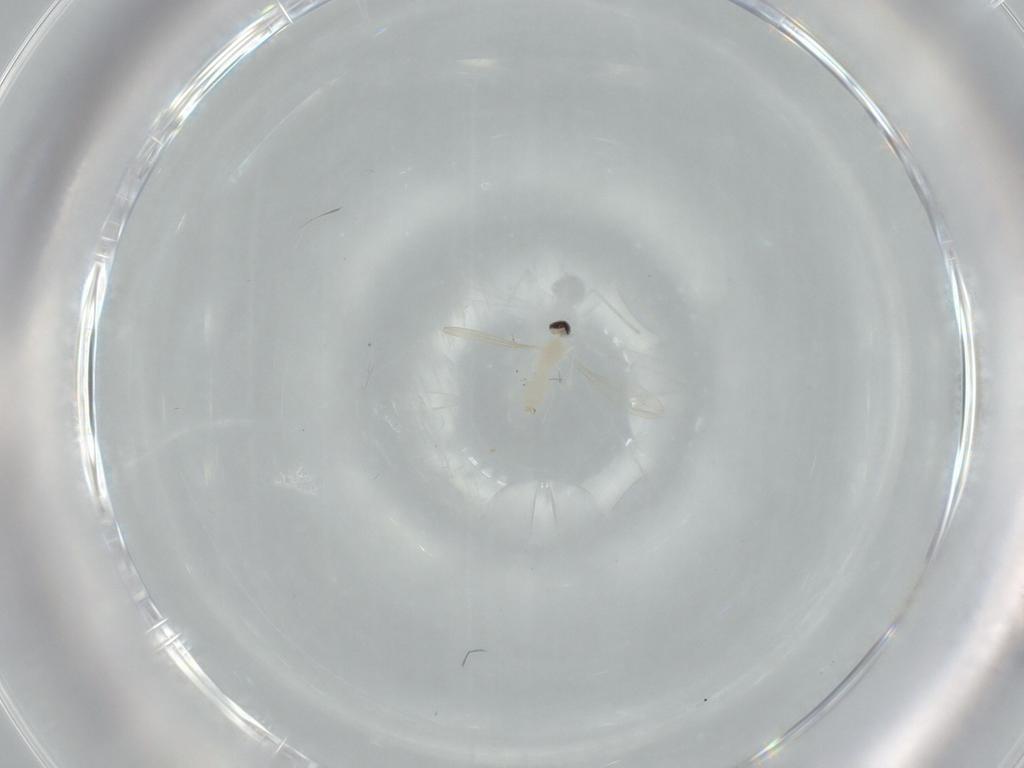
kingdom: Animalia
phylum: Arthropoda
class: Insecta
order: Diptera
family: Cecidomyiidae
